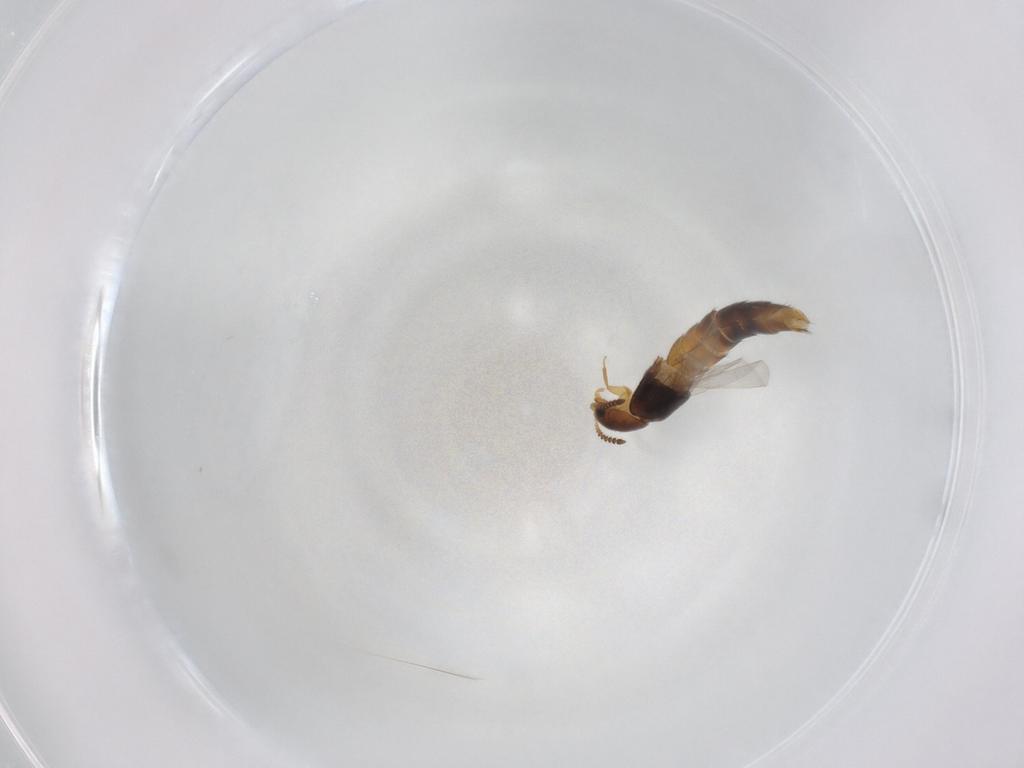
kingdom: Animalia
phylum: Arthropoda
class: Insecta
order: Coleoptera
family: Staphylinidae
